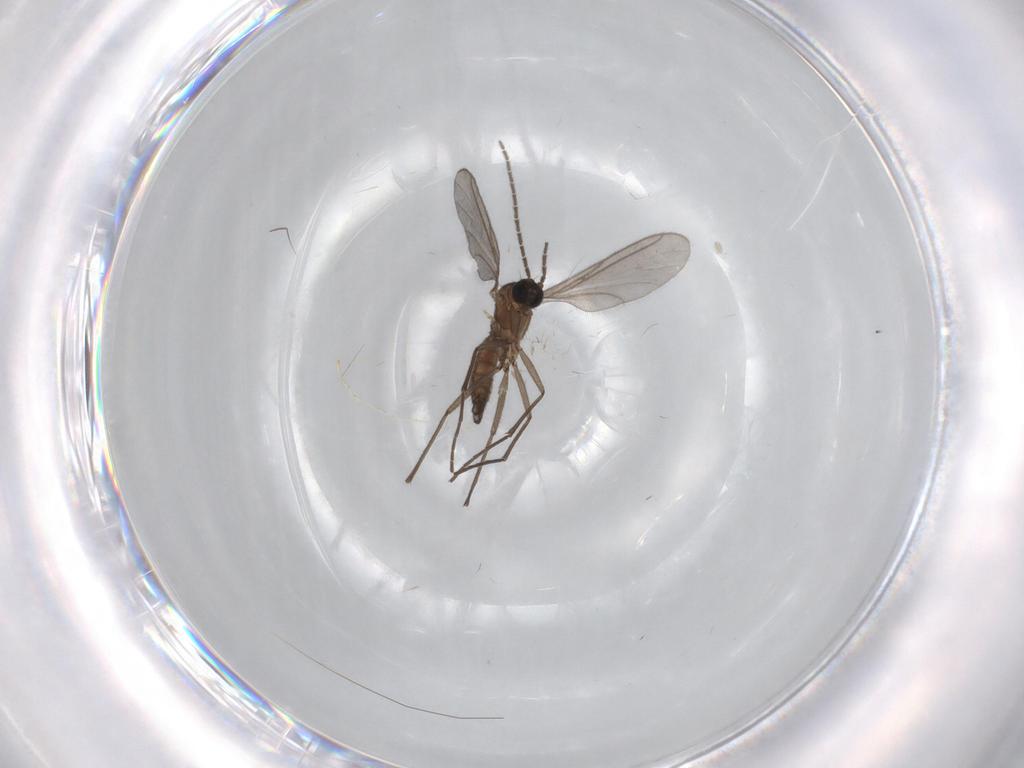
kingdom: Animalia
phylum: Arthropoda
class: Insecta
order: Diptera
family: Sciaridae
